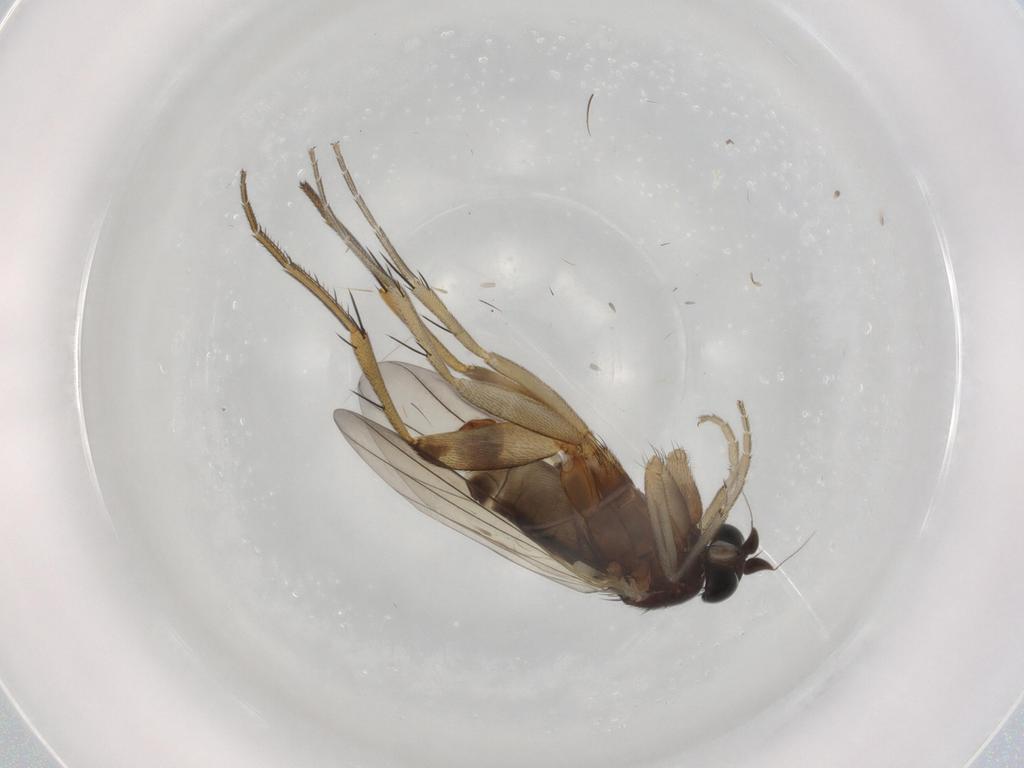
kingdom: Animalia
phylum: Arthropoda
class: Insecta
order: Diptera
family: Phoridae
